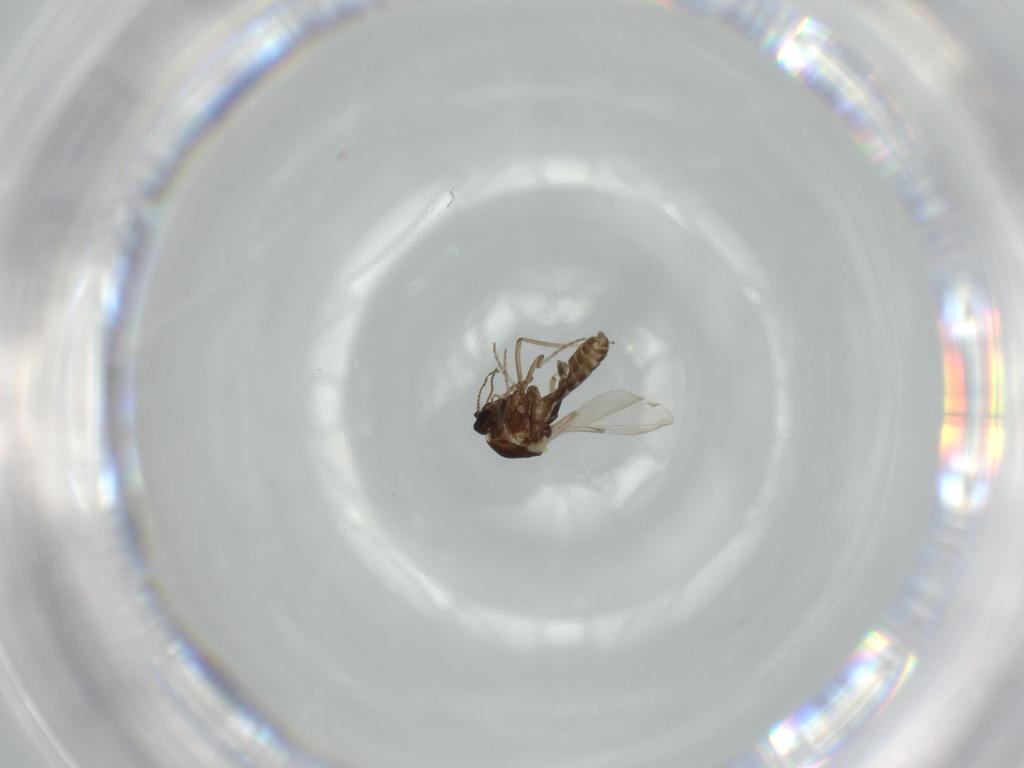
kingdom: Animalia
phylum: Arthropoda
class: Insecta
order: Diptera
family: Ceratopogonidae
